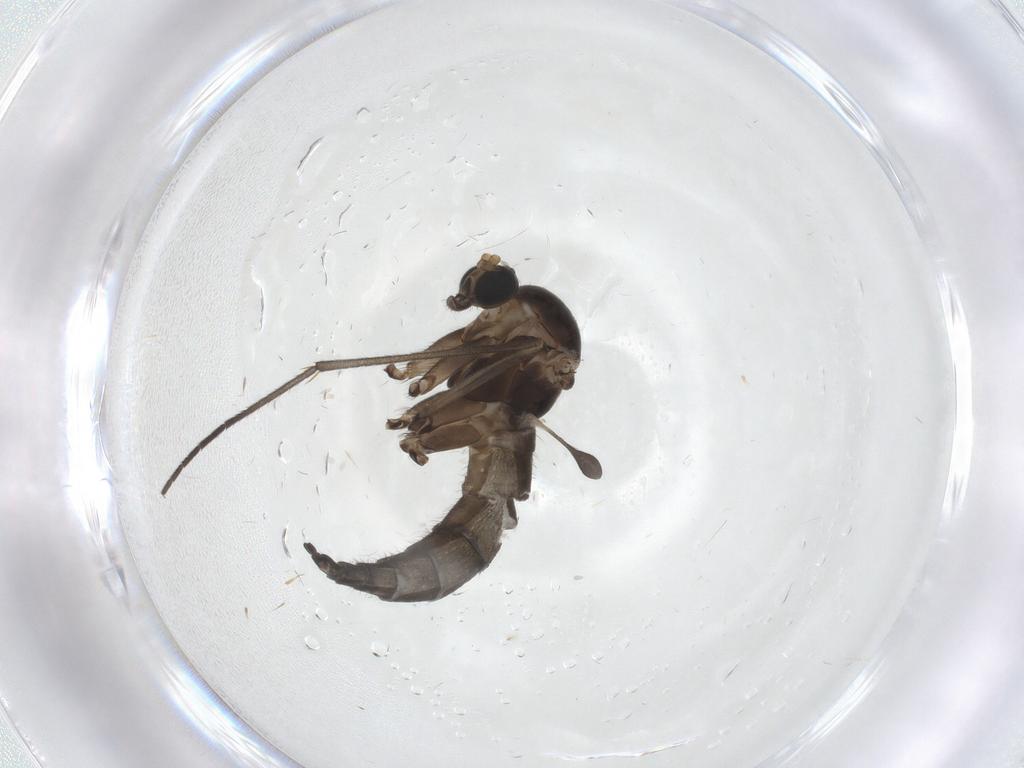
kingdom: Animalia
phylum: Arthropoda
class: Insecta
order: Diptera
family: Sciaridae
